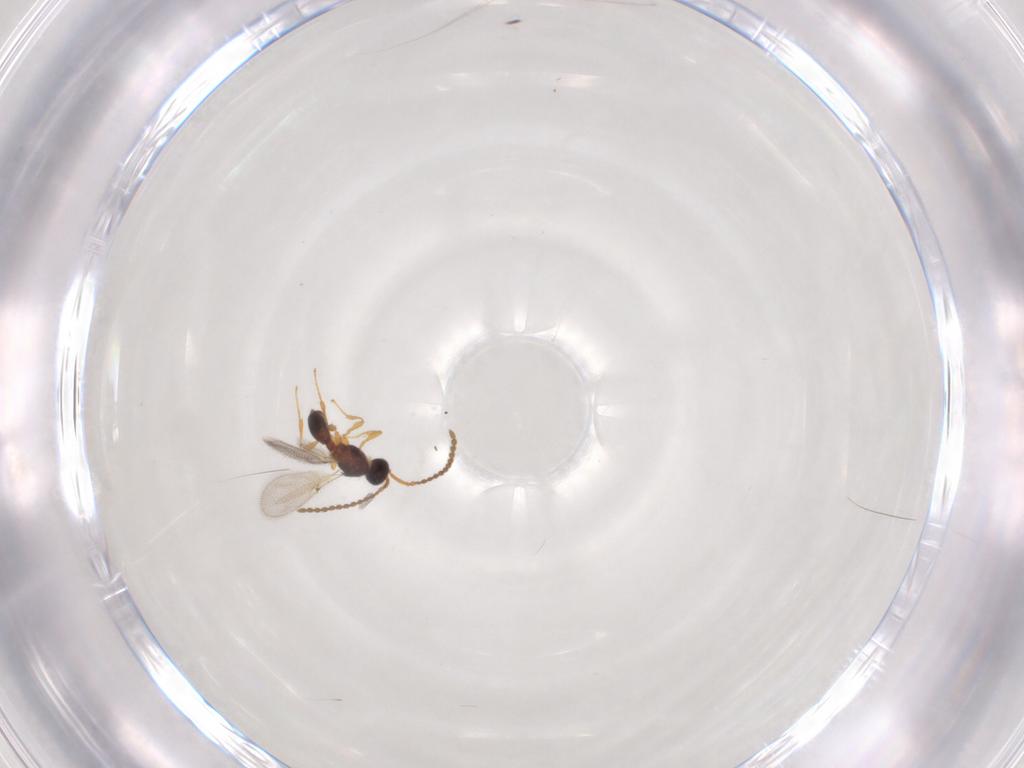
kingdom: Animalia
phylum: Arthropoda
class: Insecta
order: Hymenoptera
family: Diapriidae
